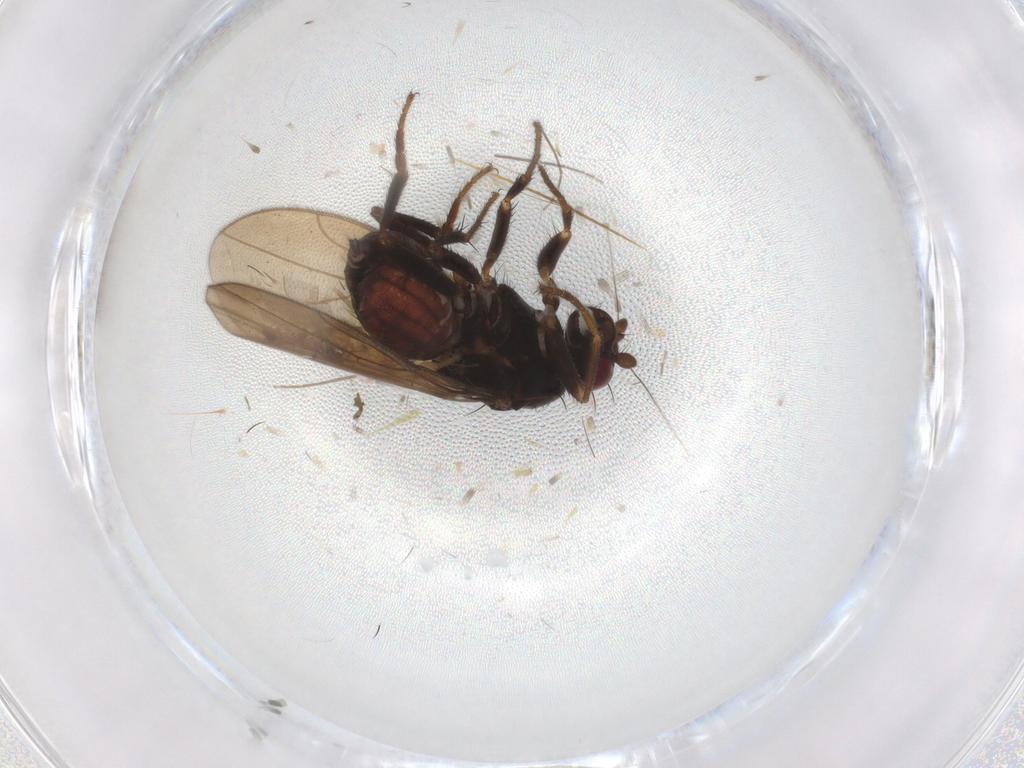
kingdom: Animalia
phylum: Arthropoda
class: Insecta
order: Diptera
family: Sphaeroceridae
